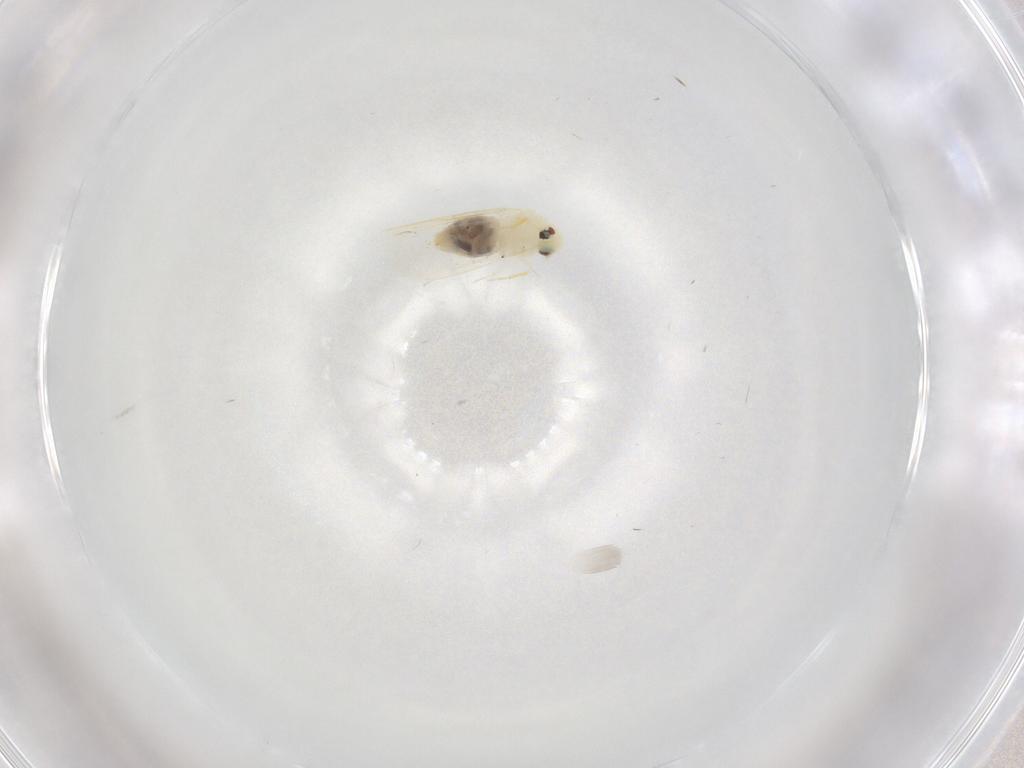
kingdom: Animalia
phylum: Arthropoda
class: Insecta
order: Hemiptera
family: Aleyrodidae
